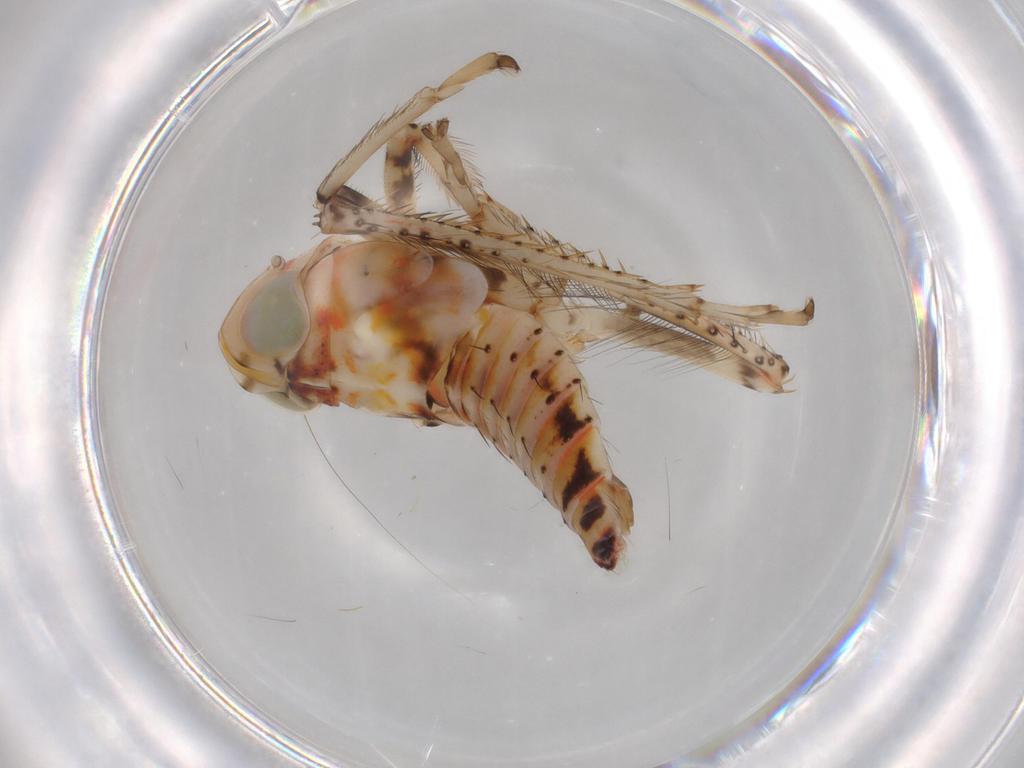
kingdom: Animalia
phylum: Arthropoda
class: Insecta
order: Hemiptera
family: Cicadellidae
